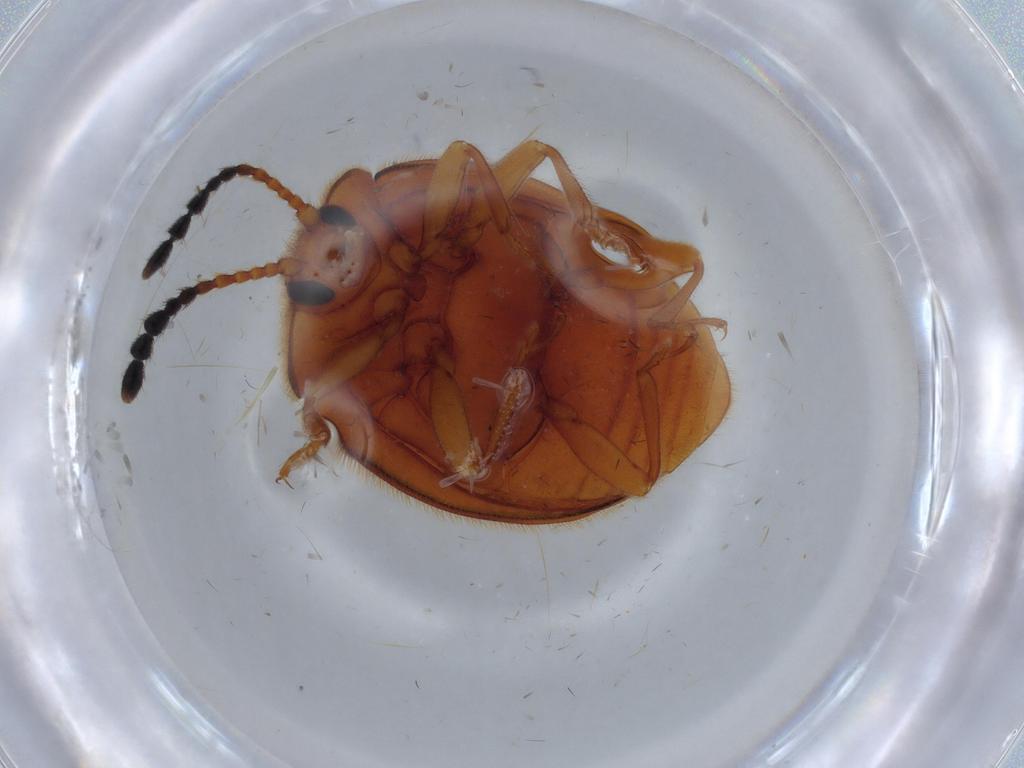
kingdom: Animalia
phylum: Arthropoda
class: Insecta
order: Coleoptera
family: Endomychidae
